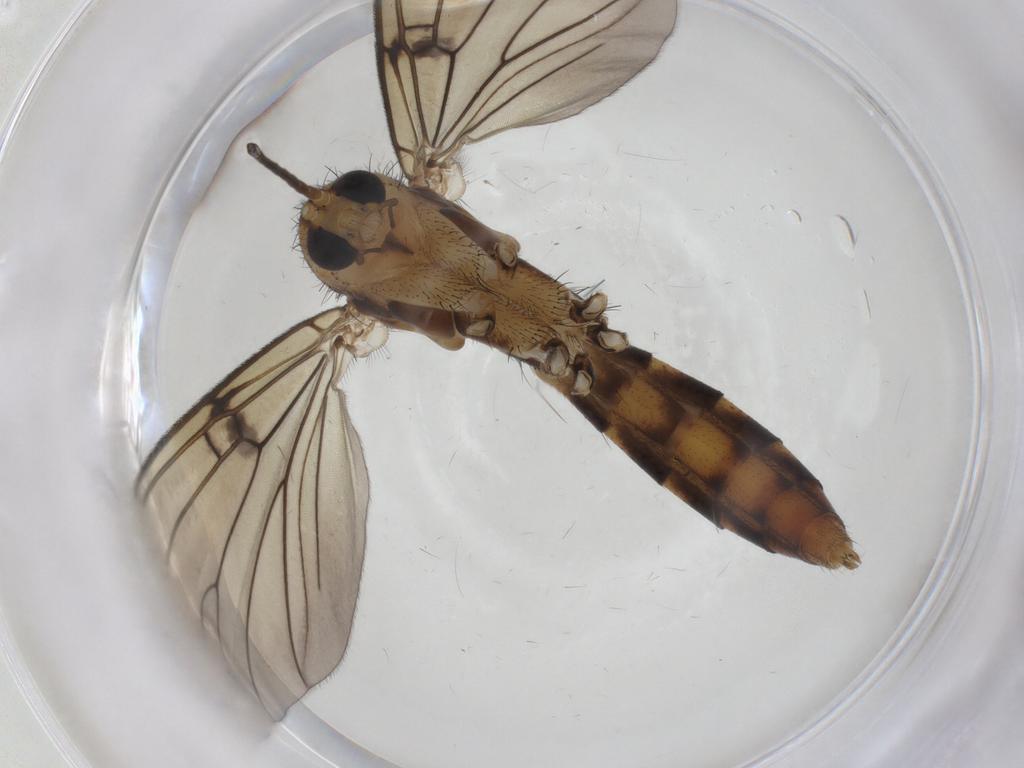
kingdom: Animalia
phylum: Arthropoda
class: Insecta
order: Diptera
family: Mycetophilidae
